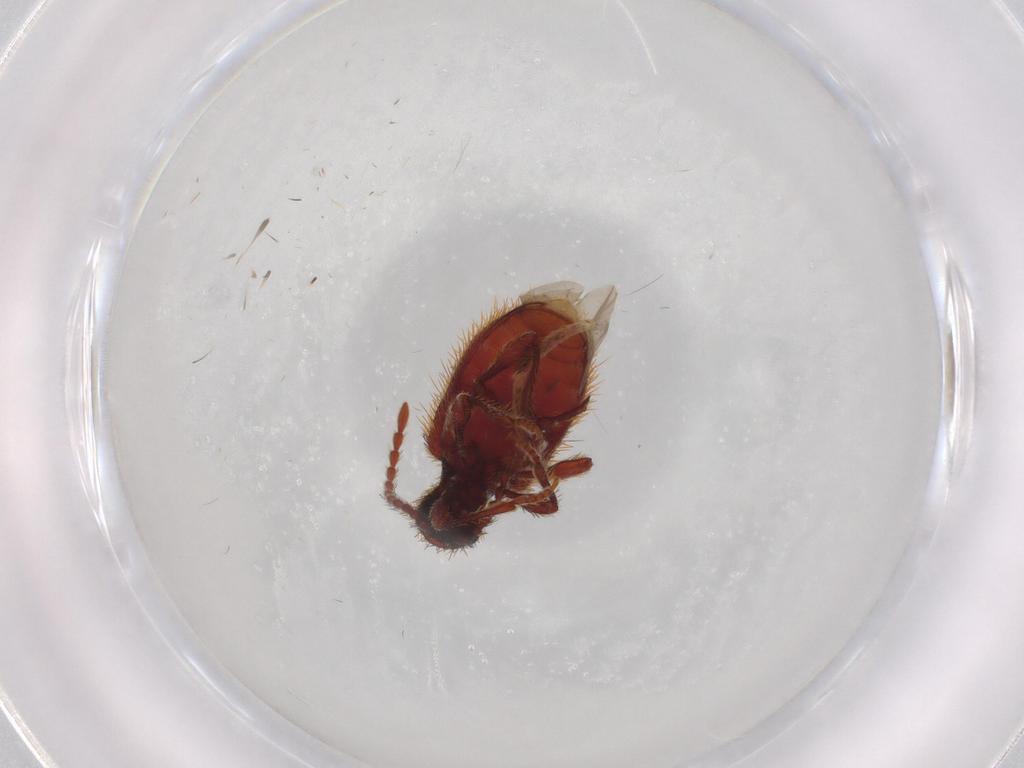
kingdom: Animalia
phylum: Arthropoda
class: Insecta
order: Coleoptera
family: Ptinidae
